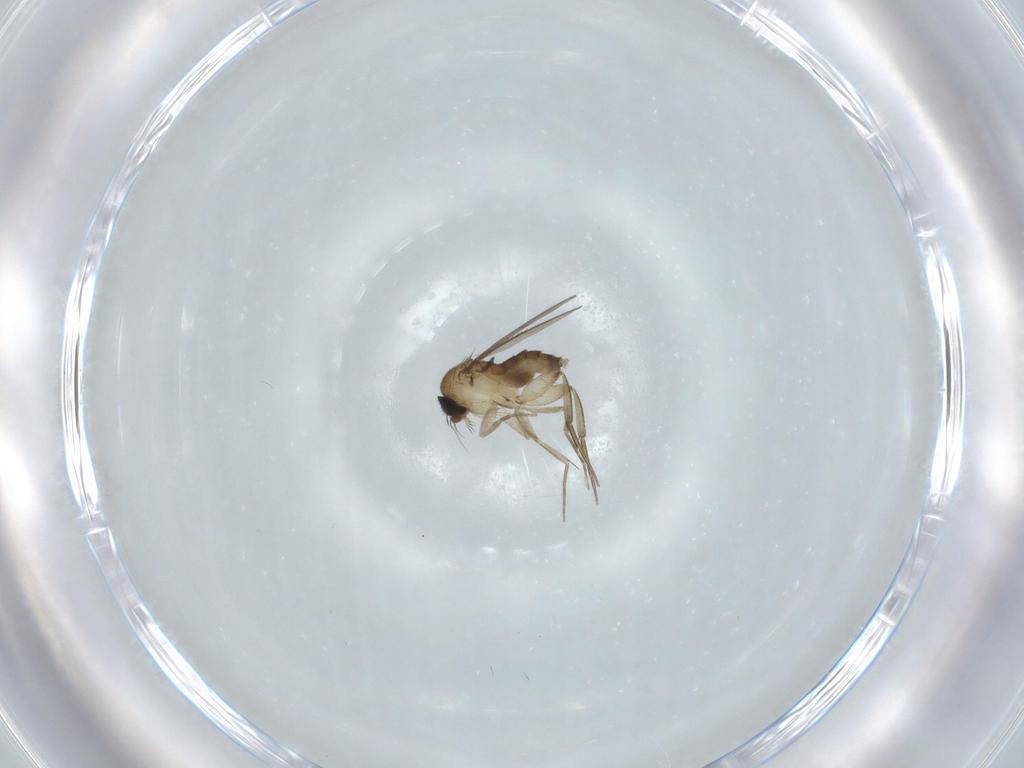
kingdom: Animalia
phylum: Arthropoda
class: Insecta
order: Diptera
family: Phoridae
